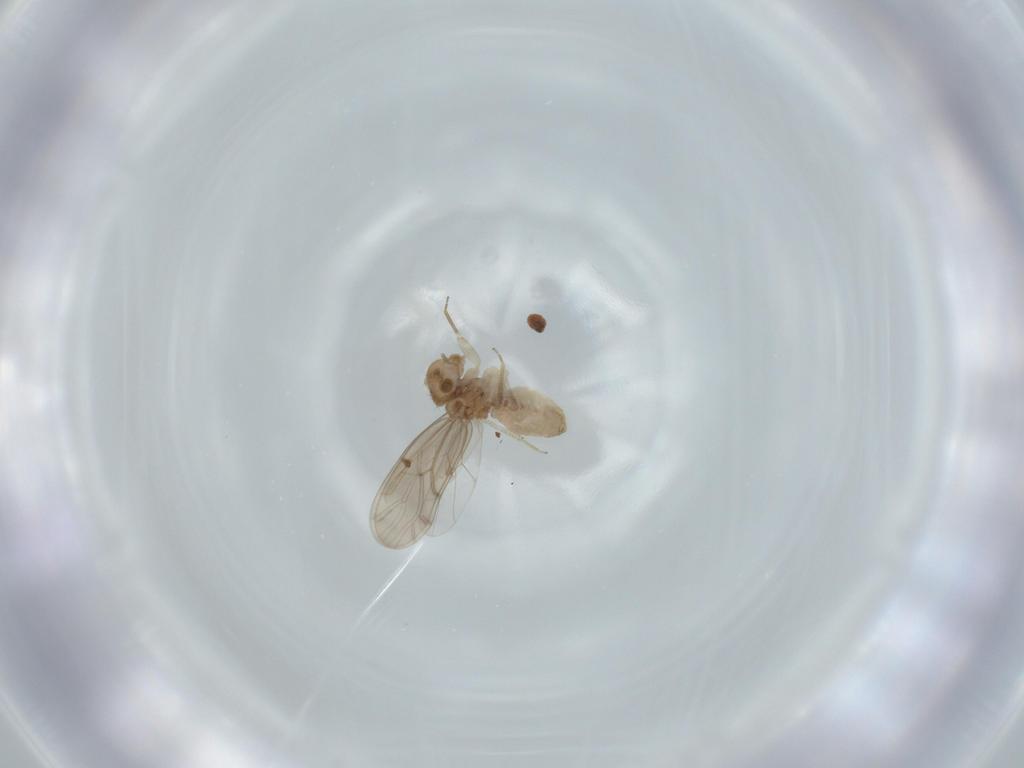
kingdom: Animalia
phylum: Arthropoda
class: Insecta
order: Psocodea
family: Ectopsocidae
